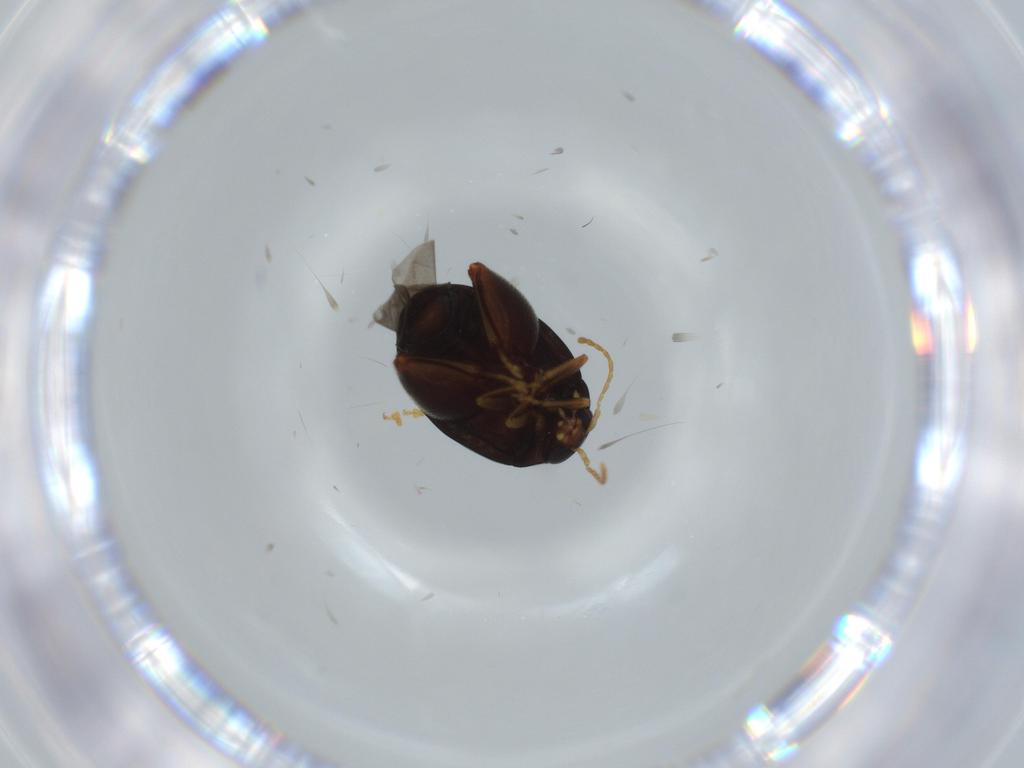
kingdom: Animalia
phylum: Arthropoda
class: Insecta
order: Coleoptera
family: Chrysomelidae
